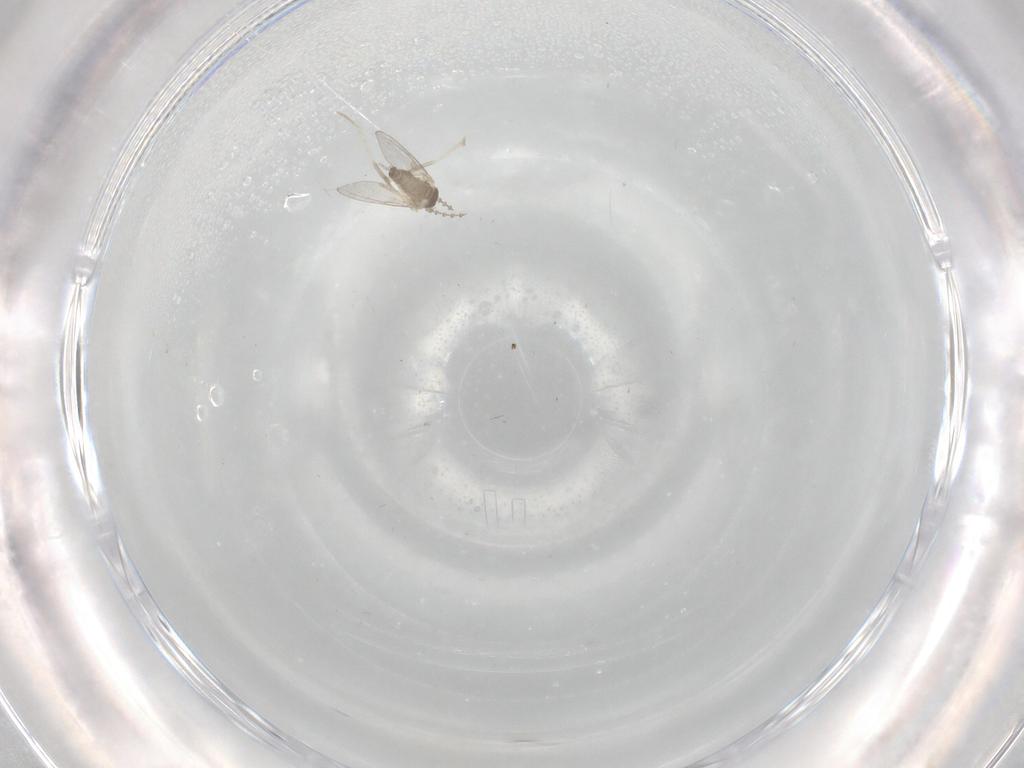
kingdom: Animalia
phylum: Arthropoda
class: Insecta
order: Diptera
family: Cecidomyiidae
